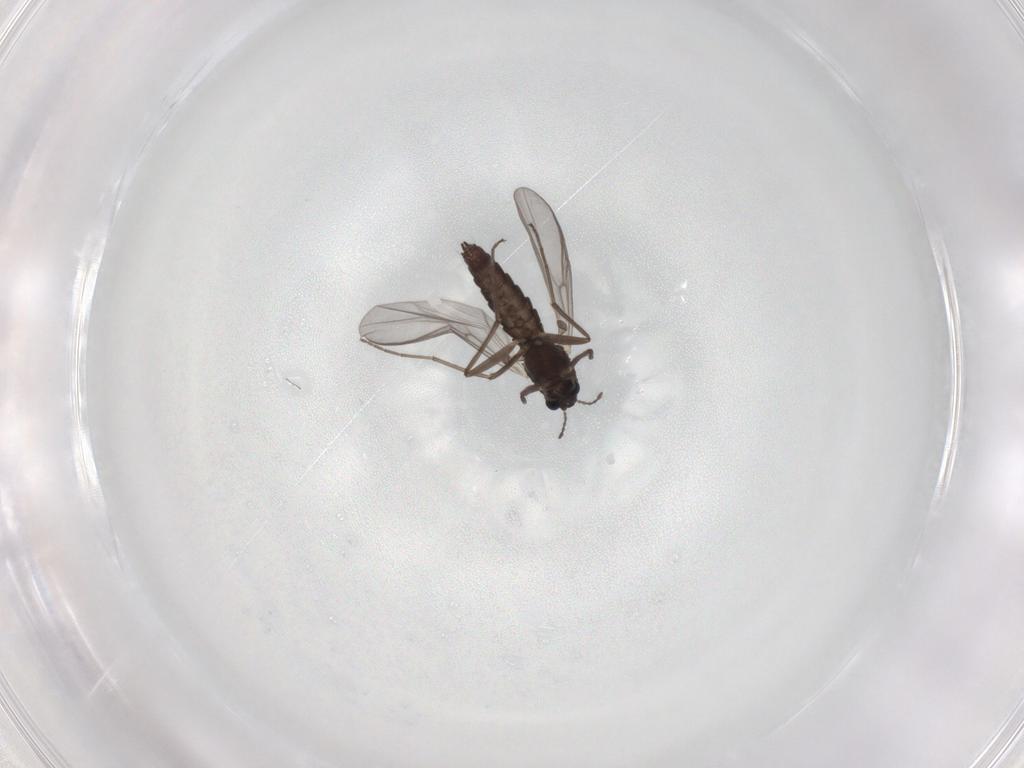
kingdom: Animalia
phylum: Arthropoda
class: Insecta
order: Diptera
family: Chironomidae
